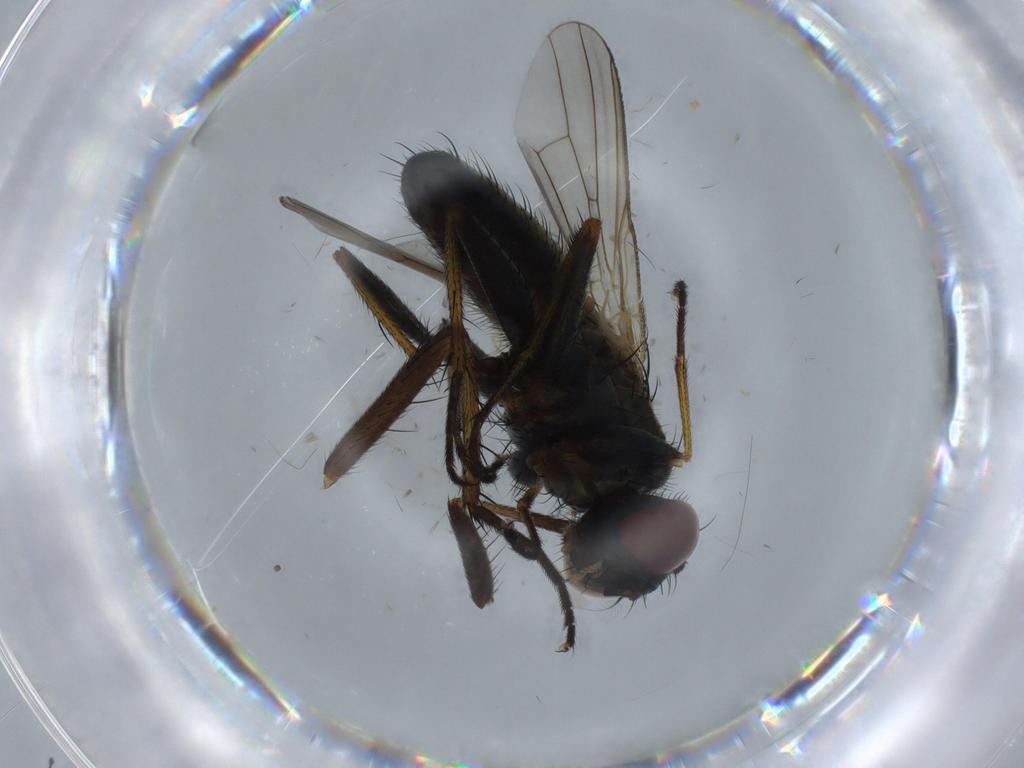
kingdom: Animalia
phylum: Arthropoda
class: Insecta
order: Diptera
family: Muscidae
